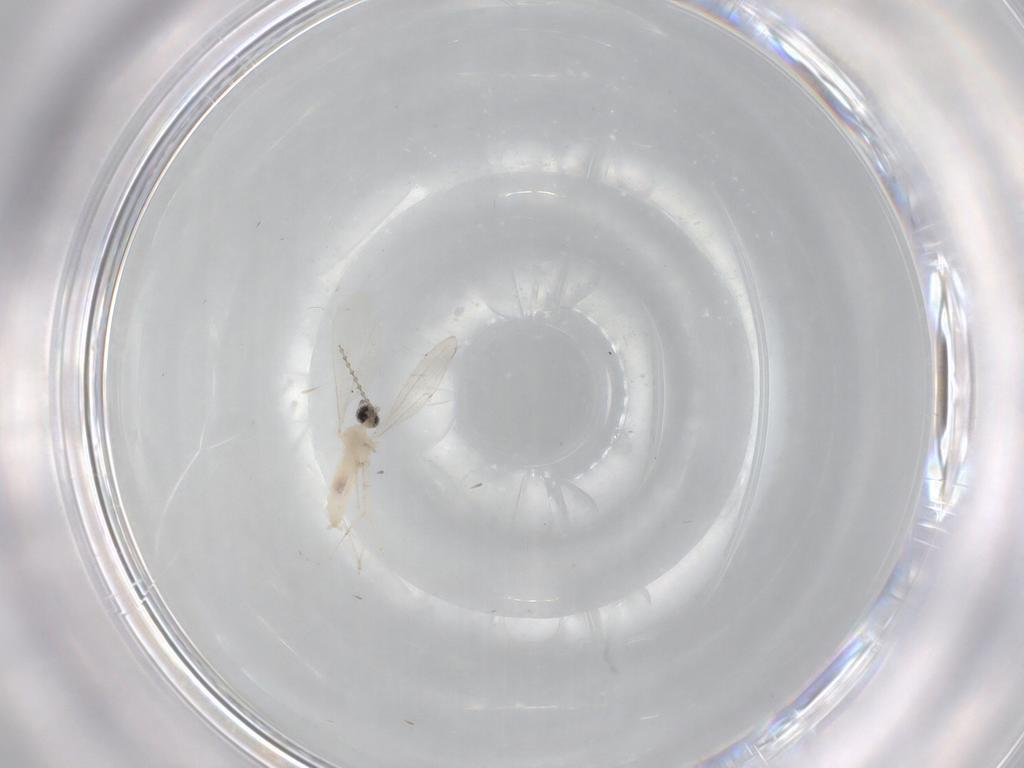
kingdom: Animalia
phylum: Arthropoda
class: Insecta
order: Diptera
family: Cecidomyiidae
